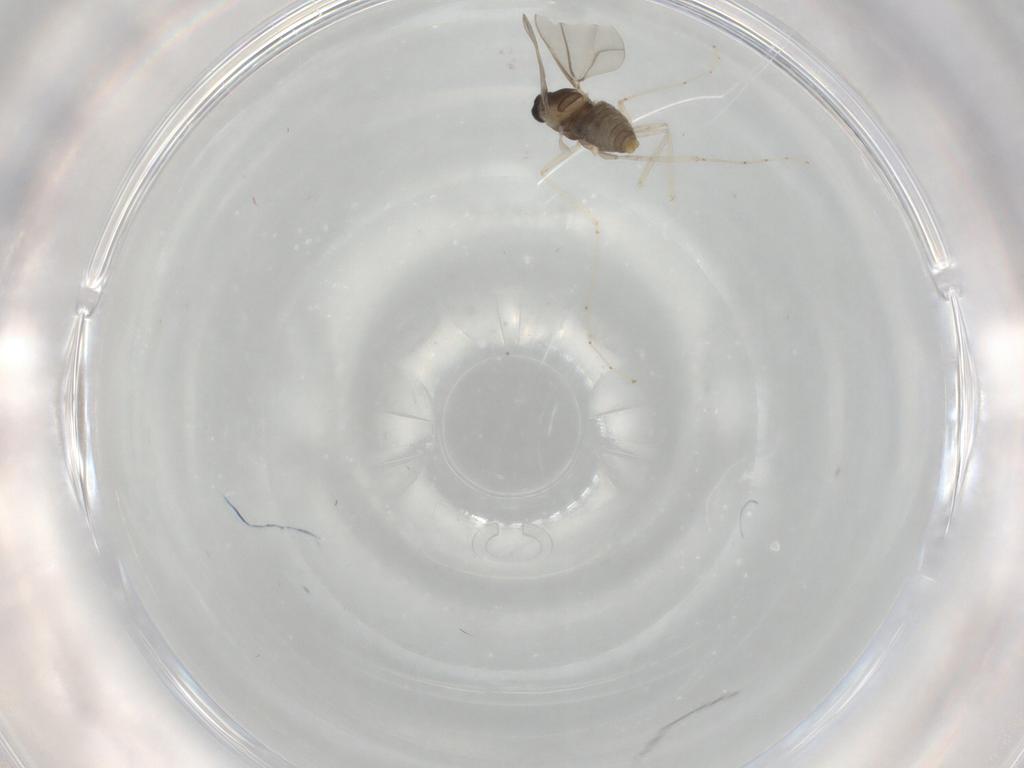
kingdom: Animalia
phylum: Arthropoda
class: Insecta
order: Diptera
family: Cecidomyiidae
